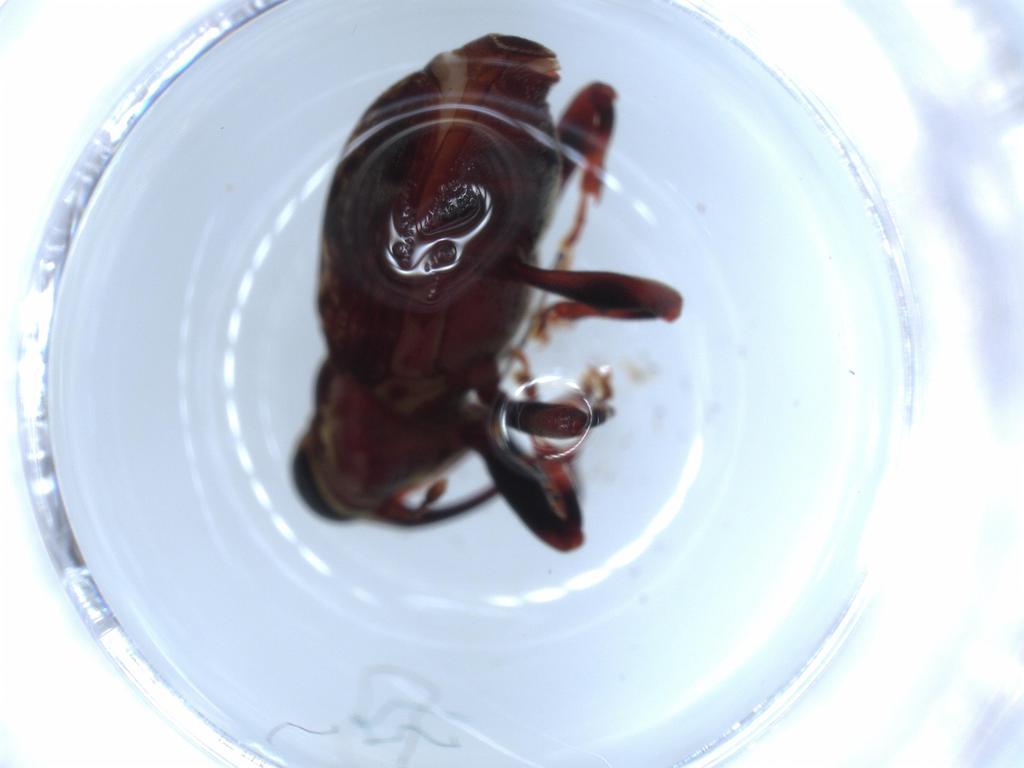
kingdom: Animalia
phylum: Arthropoda
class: Insecta
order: Coleoptera
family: Curculionidae
